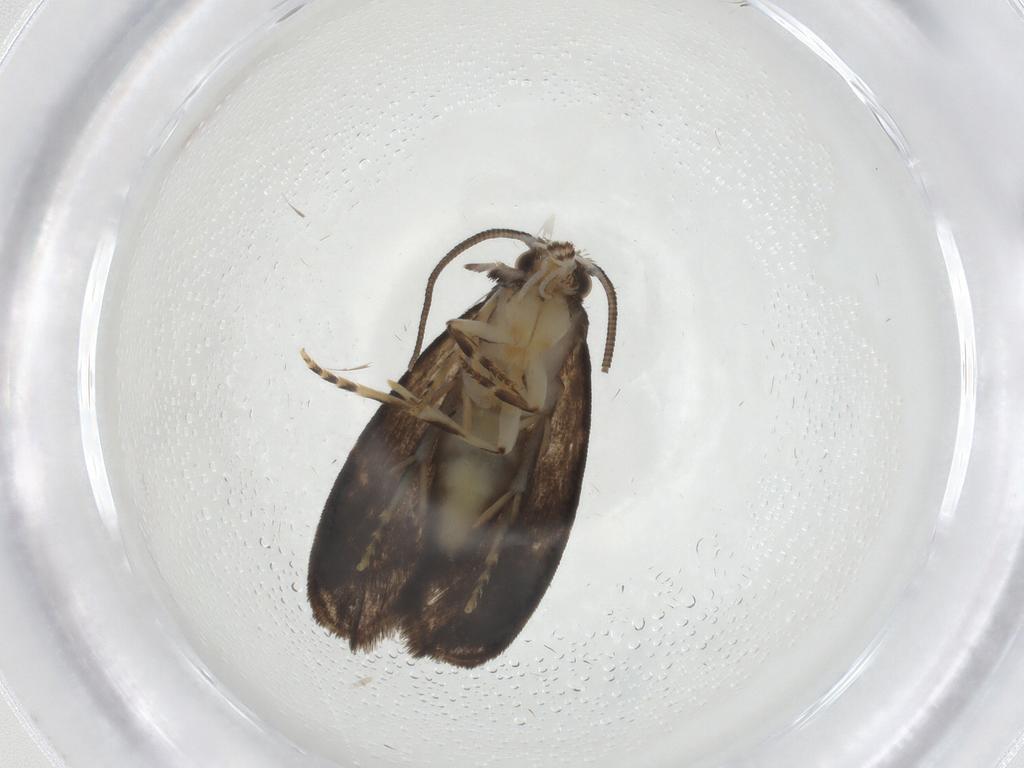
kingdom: Animalia
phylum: Arthropoda
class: Insecta
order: Lepidoptera
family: Dryadaulidae
